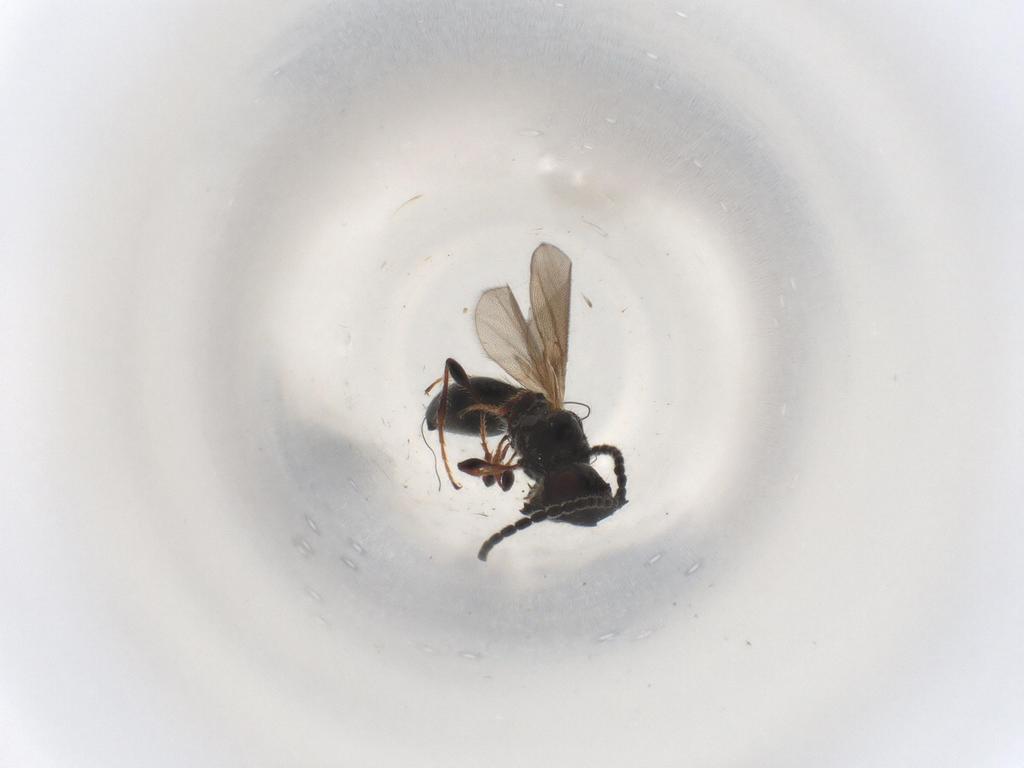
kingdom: Animalia
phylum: Arthropoda
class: Insecta
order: Hymenoptera
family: Formicidae
